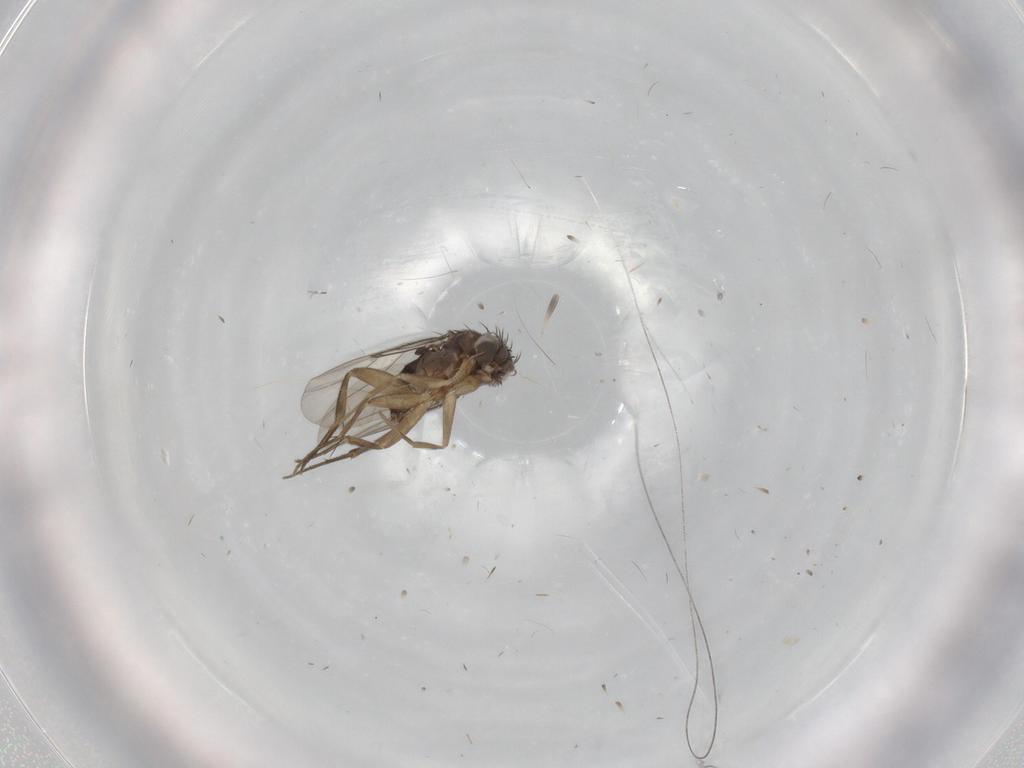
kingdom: Animalia
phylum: Arthropoda
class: Insecta
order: Diptera
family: Phoridae
